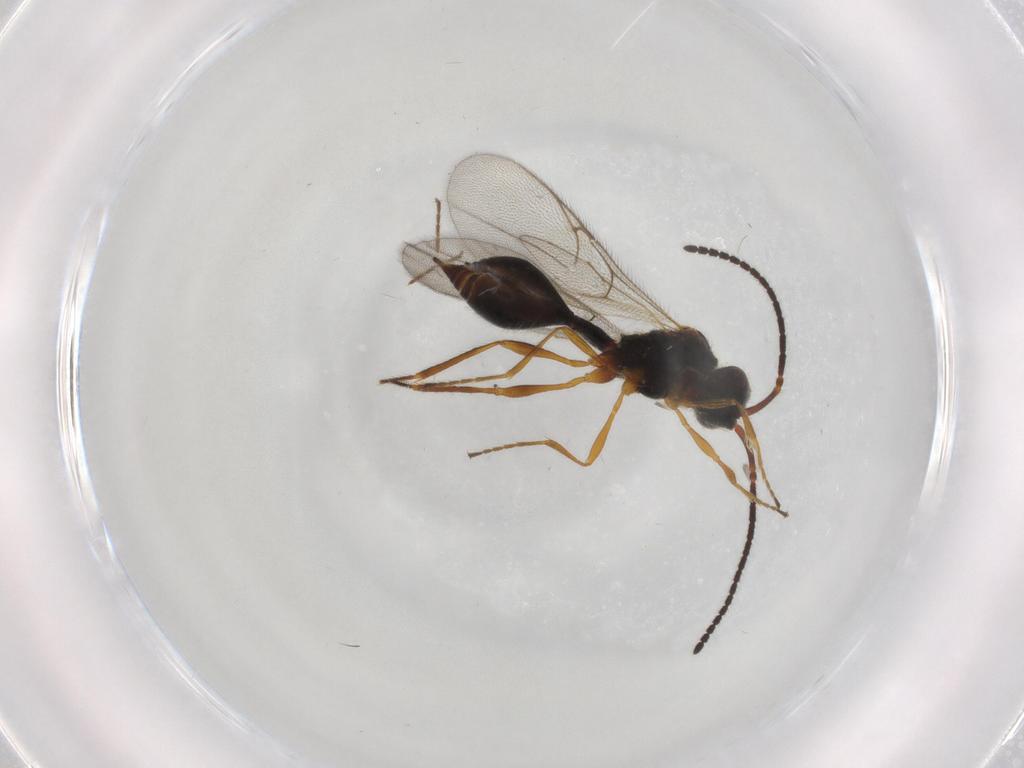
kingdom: Animalia
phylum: Arthropoda
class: Insecta
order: Hymenoptera
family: Diapriidae
